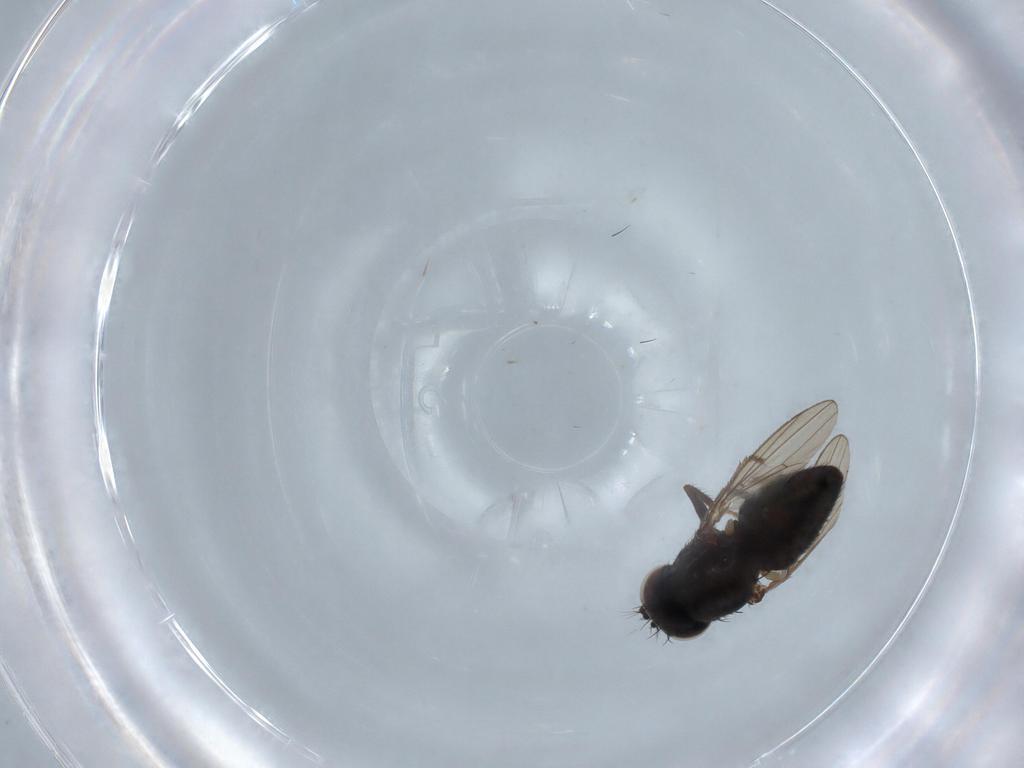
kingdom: Animalia
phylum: Arthropoda
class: Insecta
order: Diptera
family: Ephydridae
